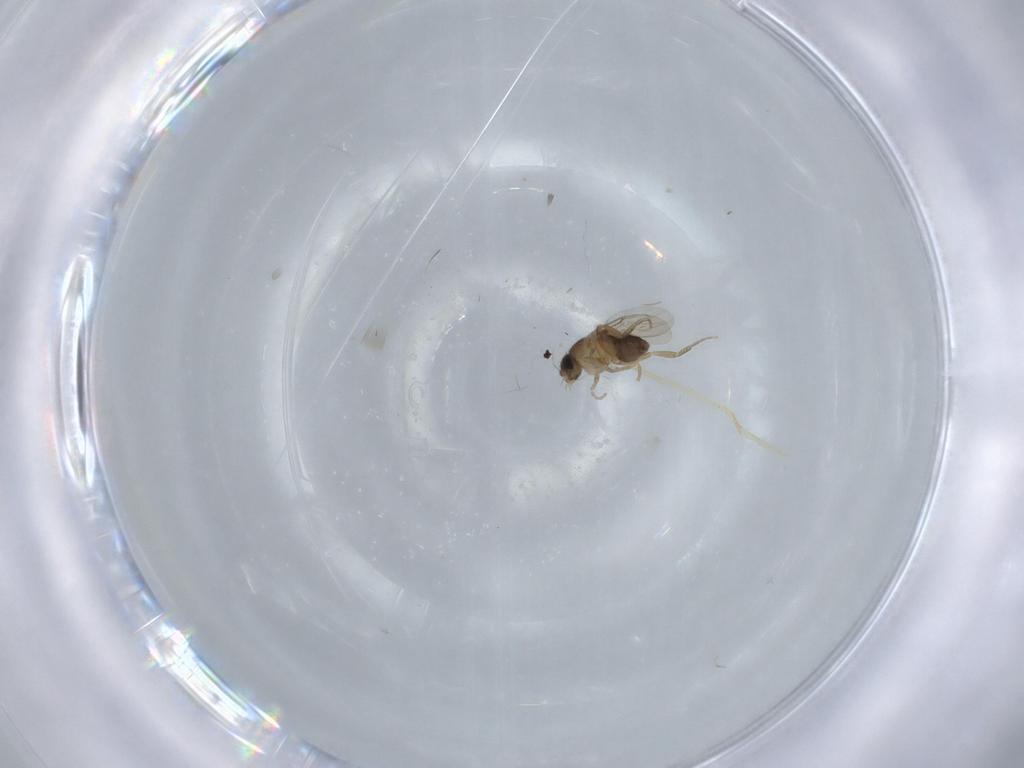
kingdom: Animalia
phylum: Arthropoda
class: Insecta
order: Diptera
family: Phoridae
